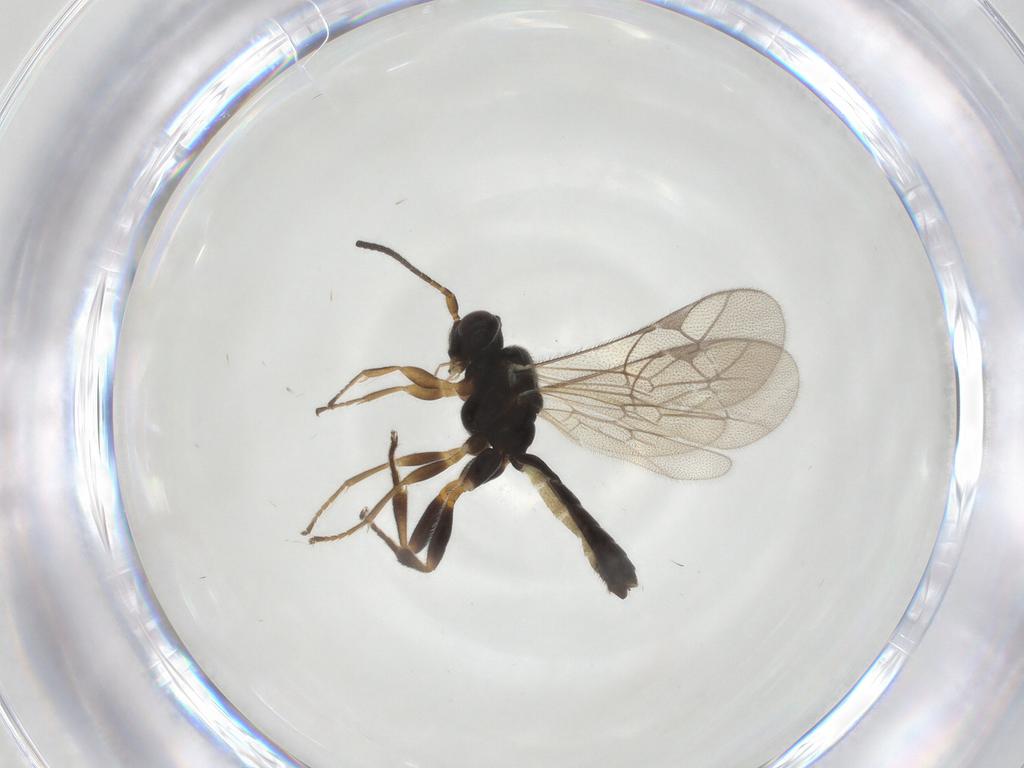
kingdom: Animalia
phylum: Arthropoda
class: Insecta
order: Hymenoptera
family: Ichneumonidae
